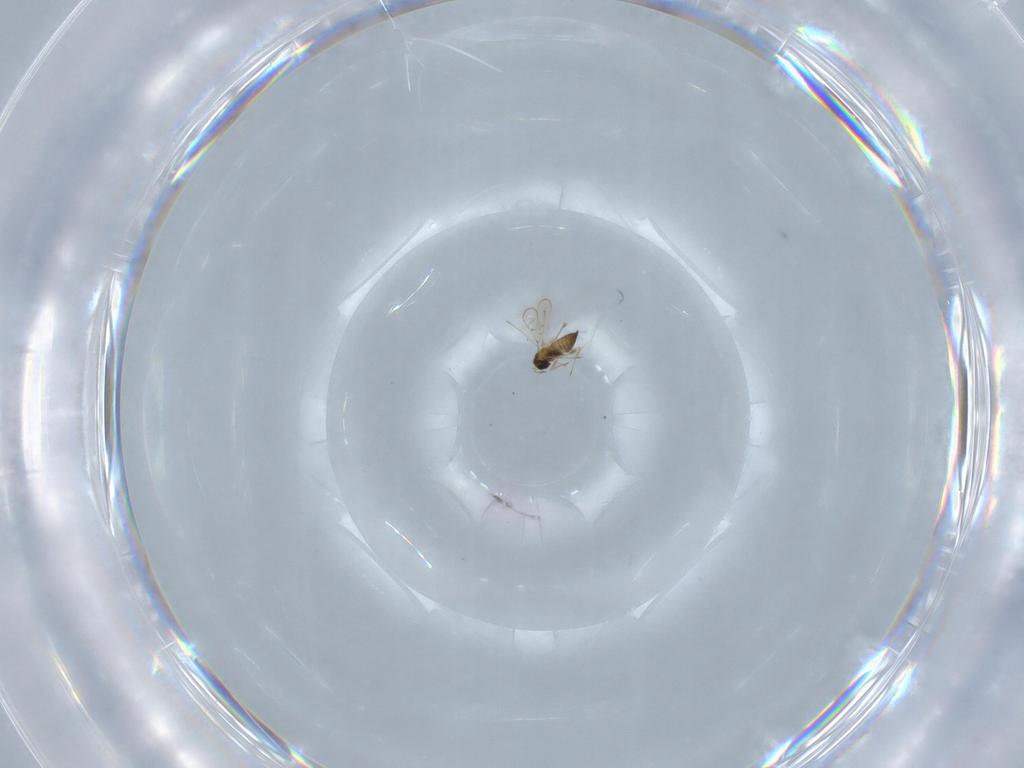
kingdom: Animalia
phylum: Arthropoda
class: Insecta
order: Hymenoptera
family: Trichogrammatidae
